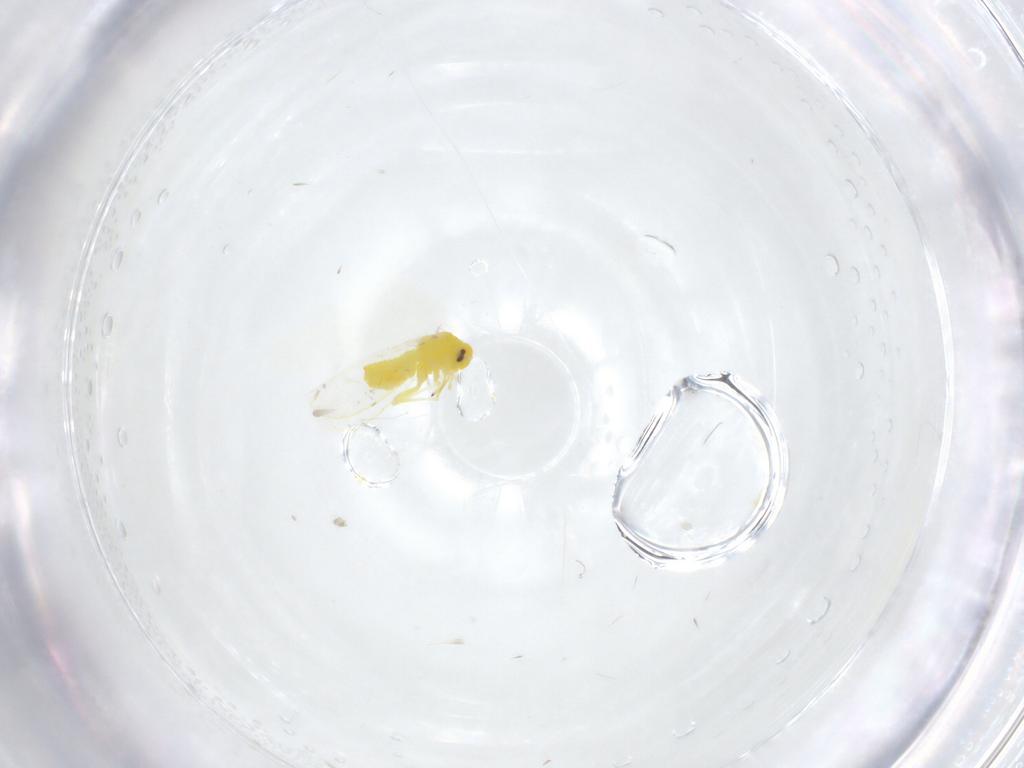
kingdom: Animalia
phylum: Arthropoda
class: Insecta
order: Hemiptera
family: Aleyrodidae
